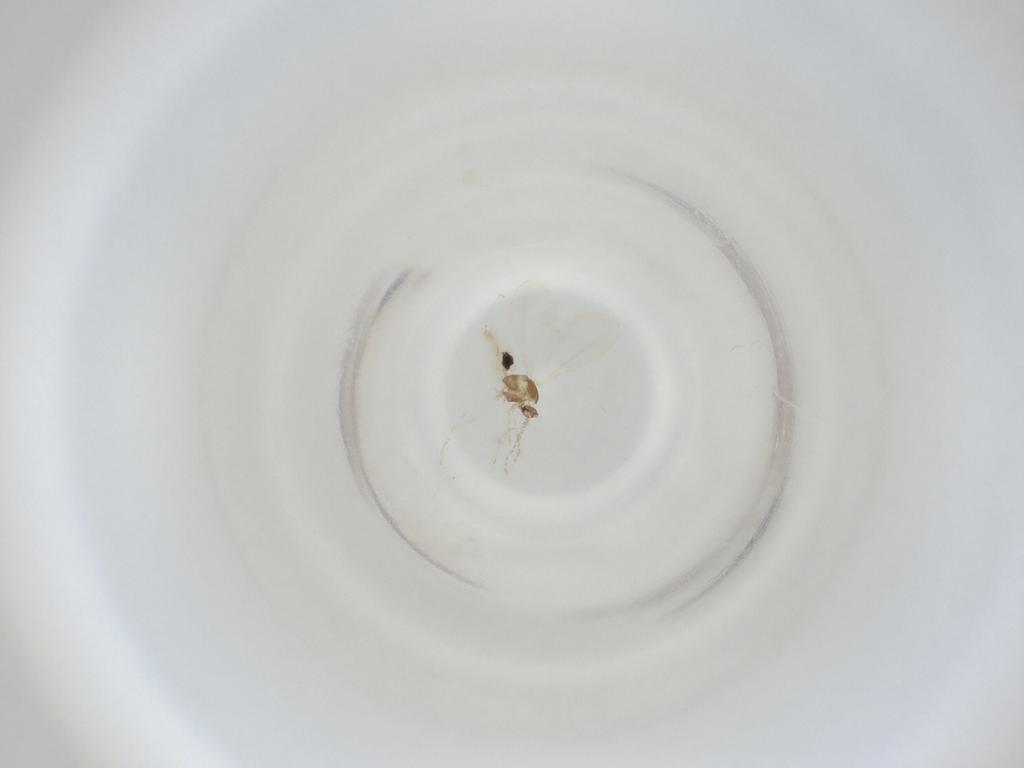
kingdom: Animalia
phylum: Arthropoda
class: Insecta
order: Diptera
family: Cecidomyiidae
